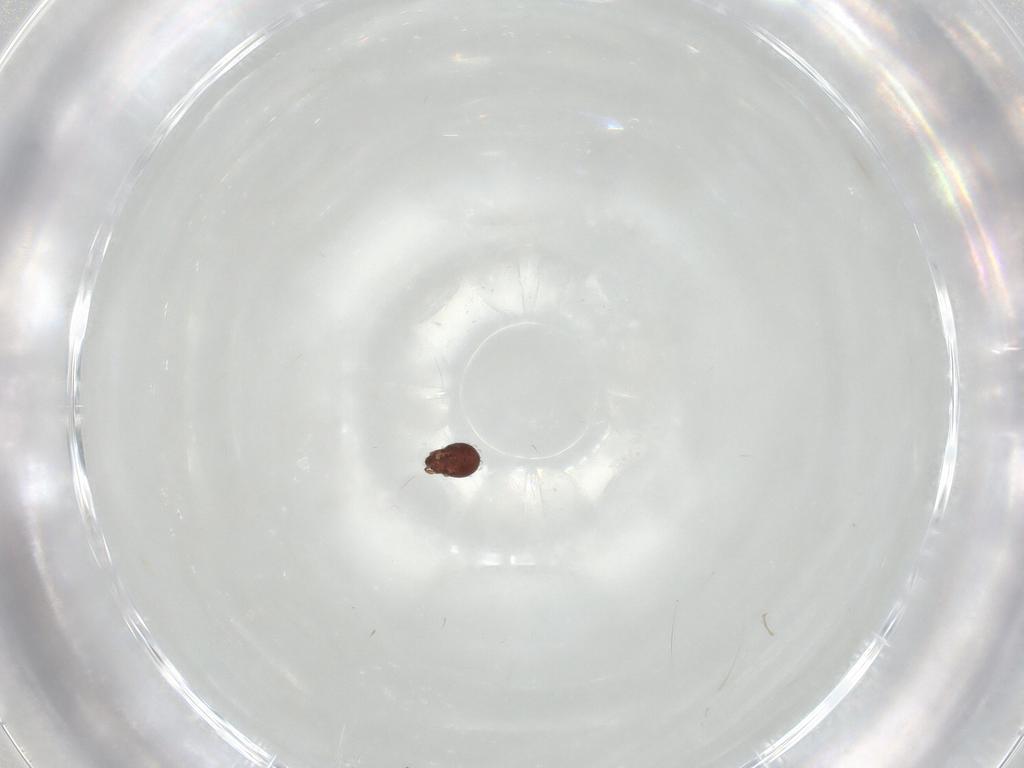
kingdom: Animalia
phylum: Arthropoda
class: Arachnida
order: Sarcoptiformes
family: Scheloribatidae
